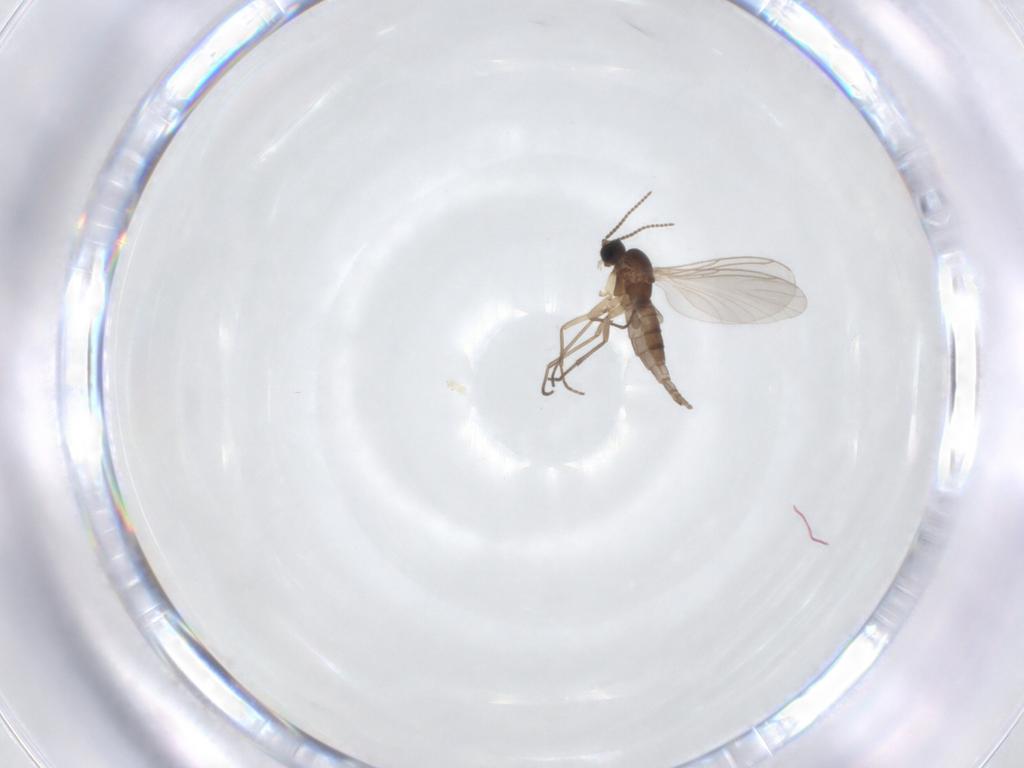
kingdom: Animalia
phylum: Arthropoda
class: Insecta
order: Diptera
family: Sciaridae
